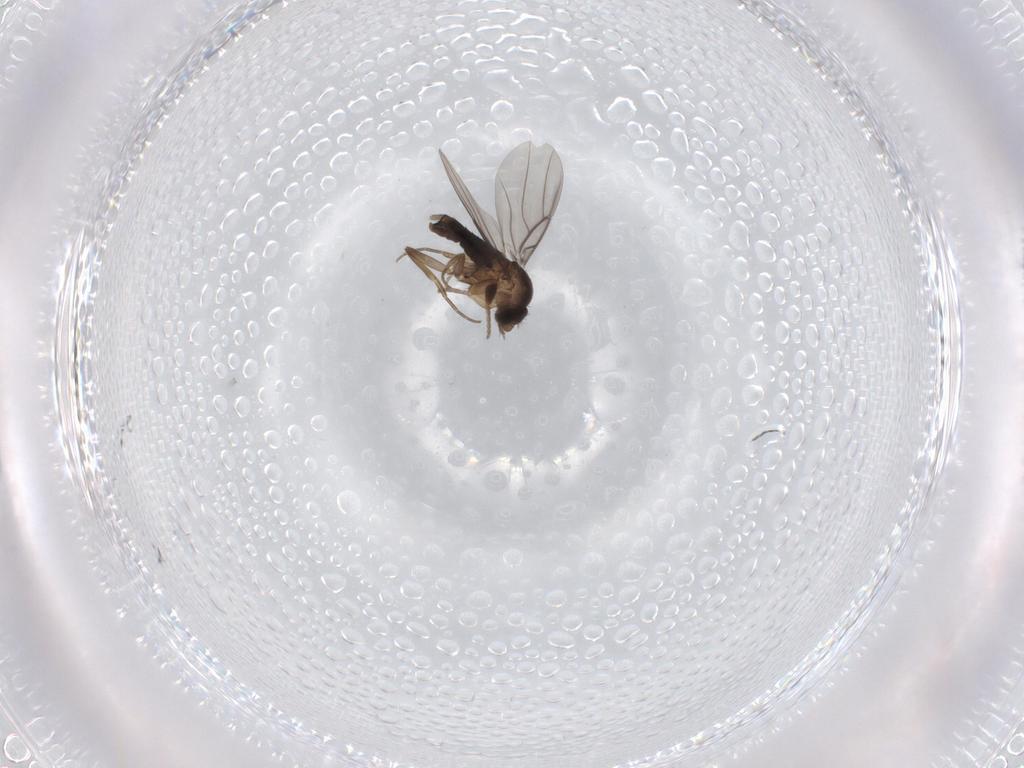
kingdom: Animalia
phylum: Arthropoda
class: Insecta
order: Diptera
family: Phoridae
